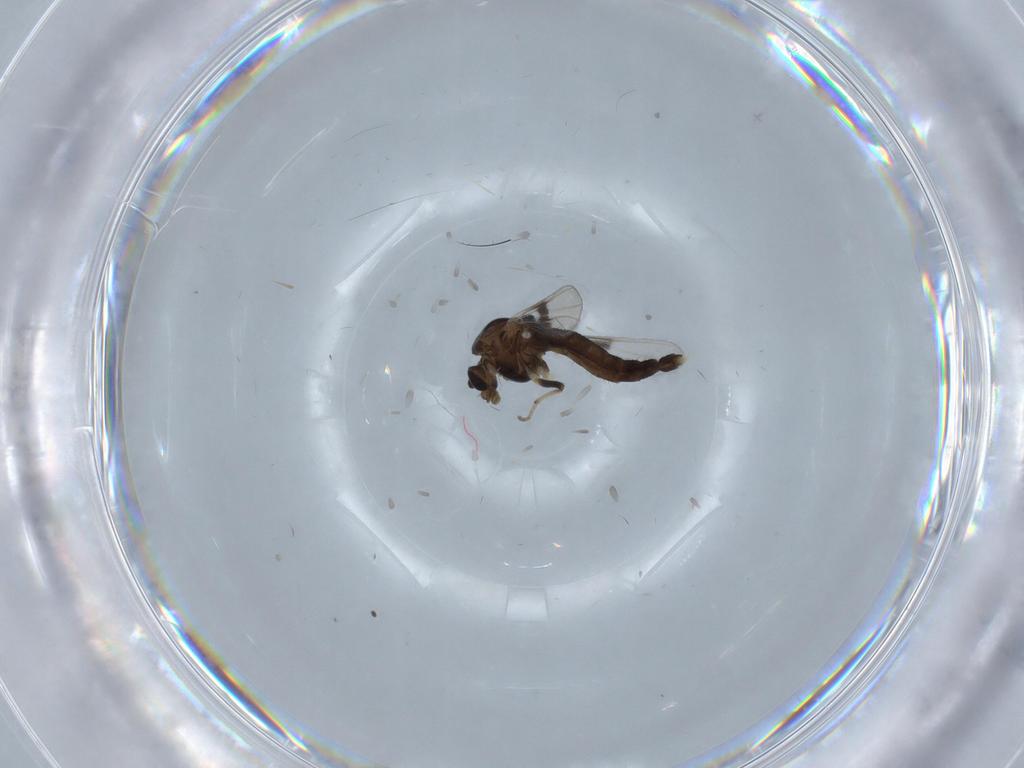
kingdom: Animalia
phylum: Arthropoda
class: Insecta
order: Diptera
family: Chironomidae
